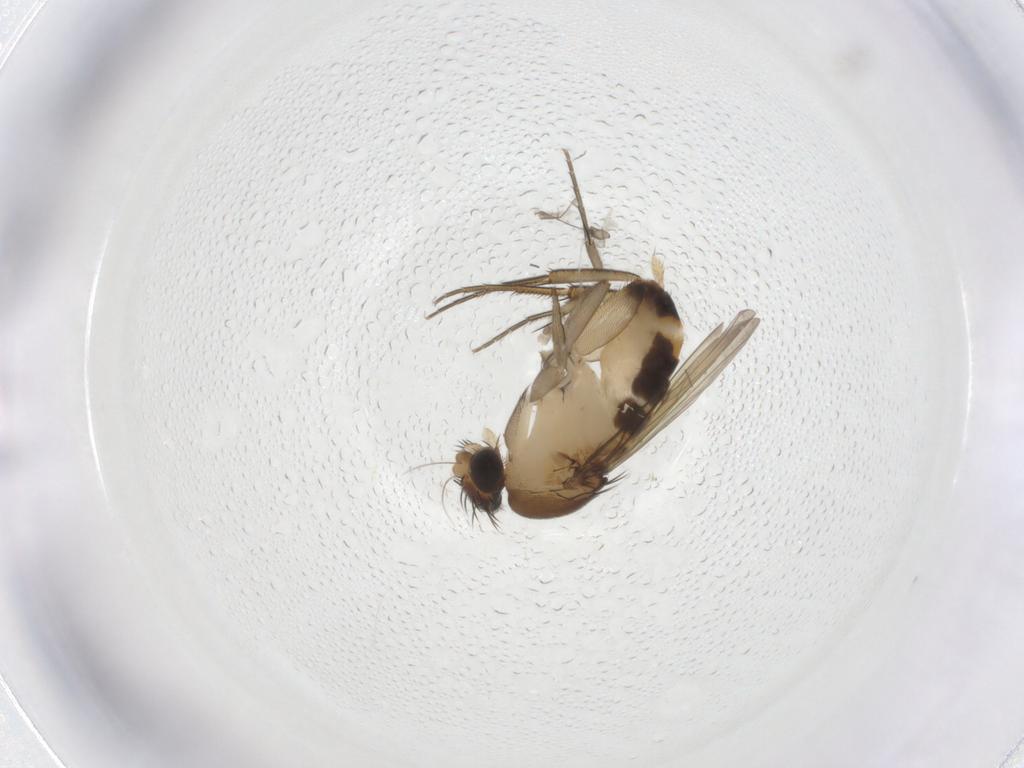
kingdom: Animalia
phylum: Arthropoda
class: Insecta
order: Diptera
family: Phoridae
